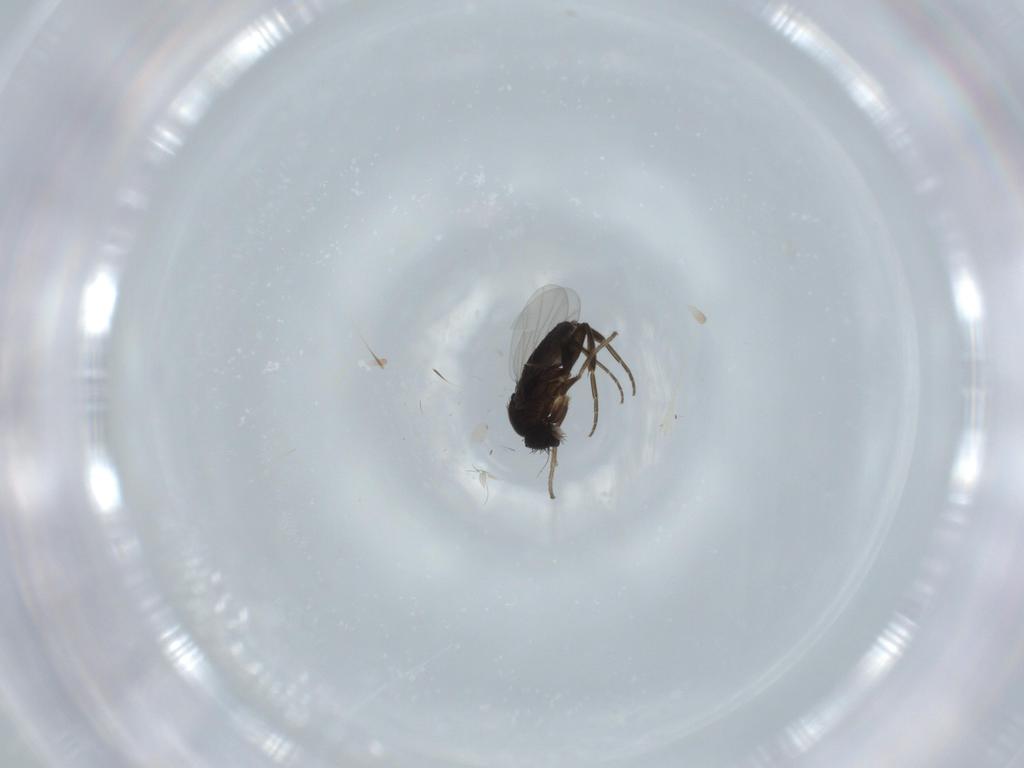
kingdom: Animalia
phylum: Arthropoda
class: Insecta
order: Diptera
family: Phoridae
